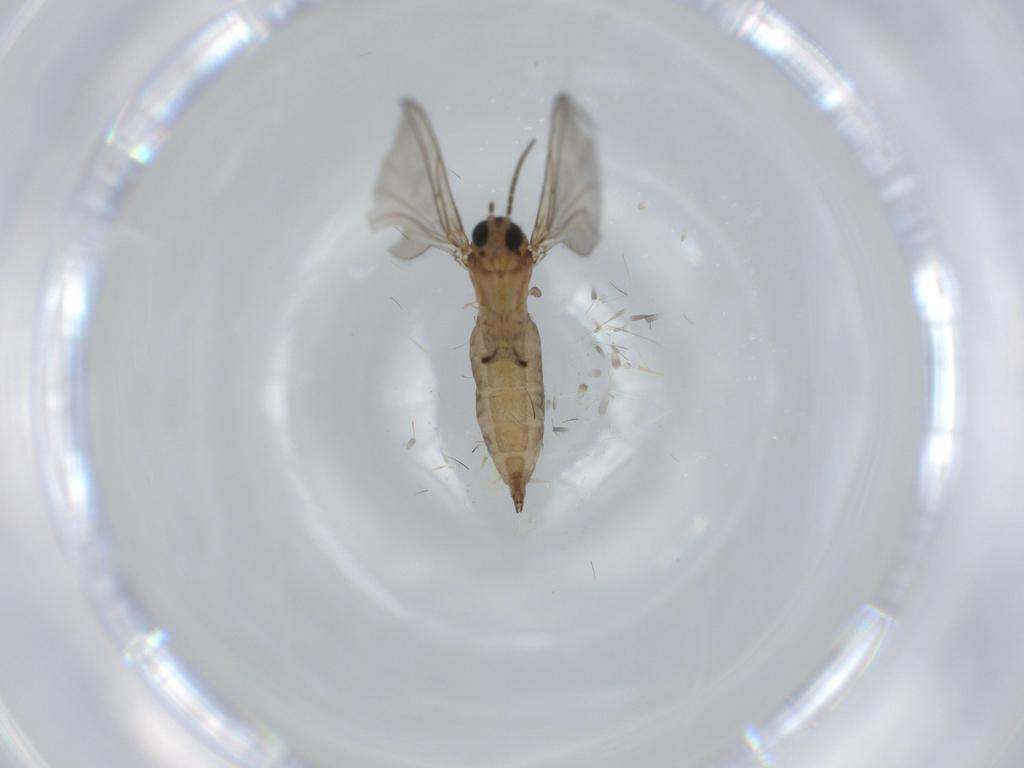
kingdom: Animalia
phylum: Arthropoda
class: Insecta
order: Diptera
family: Sciaridae
